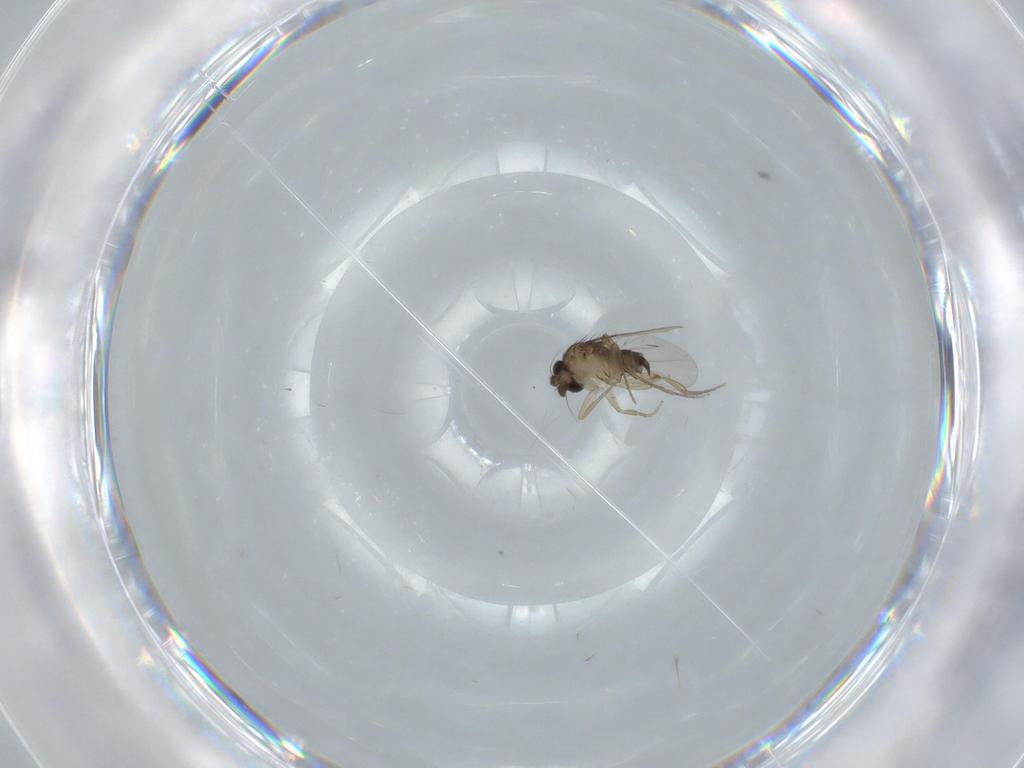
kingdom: Animalia
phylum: Arthropoda
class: Insecta
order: Diptera
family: Phoridae
